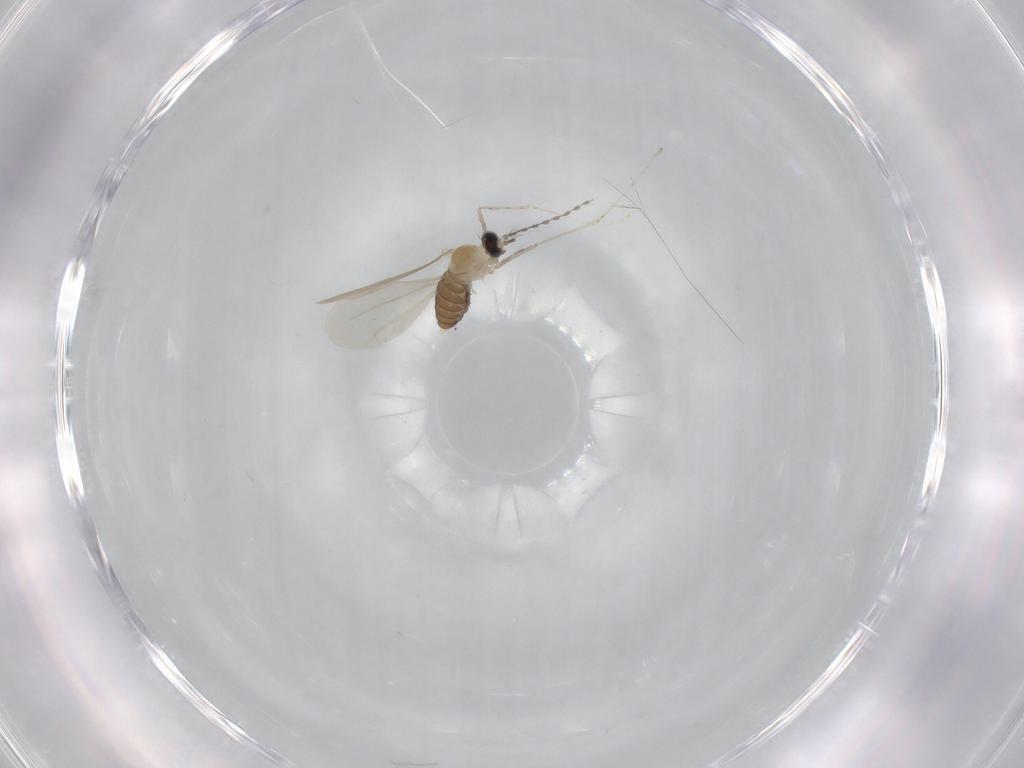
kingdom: Animalia
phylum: Arthropoda
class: Insecta
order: Diptera
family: Cecidomyiidae
